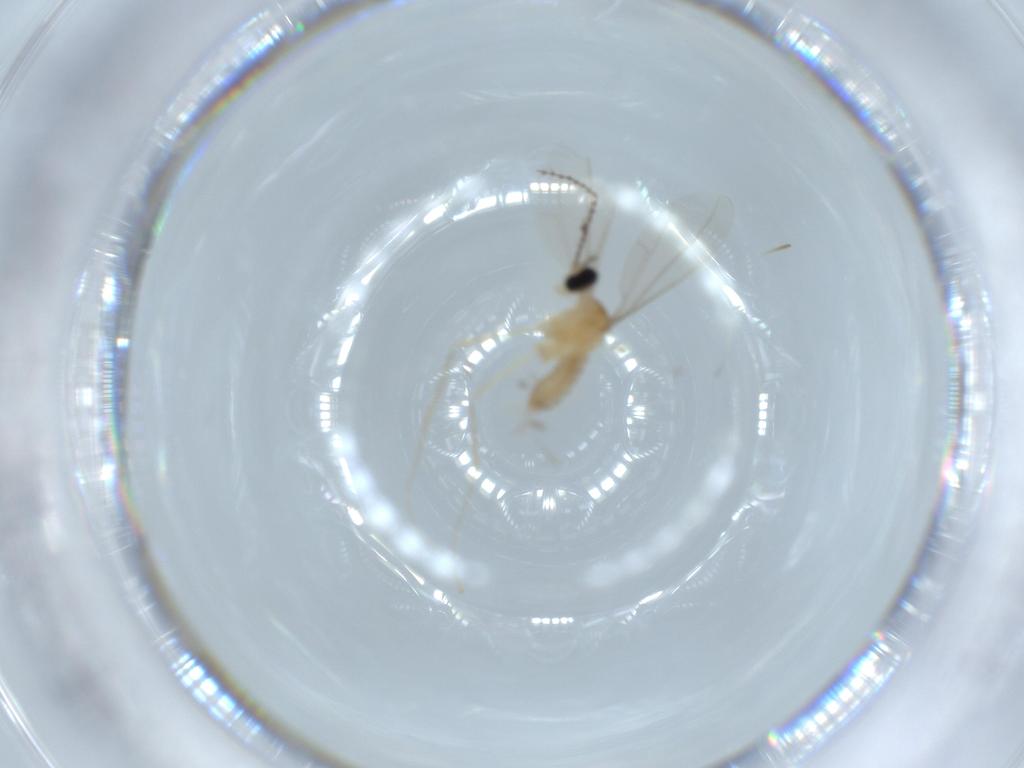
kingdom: Animalia
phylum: Arthropoda
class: Insecta
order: Diptera
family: Cecidomyiidae
